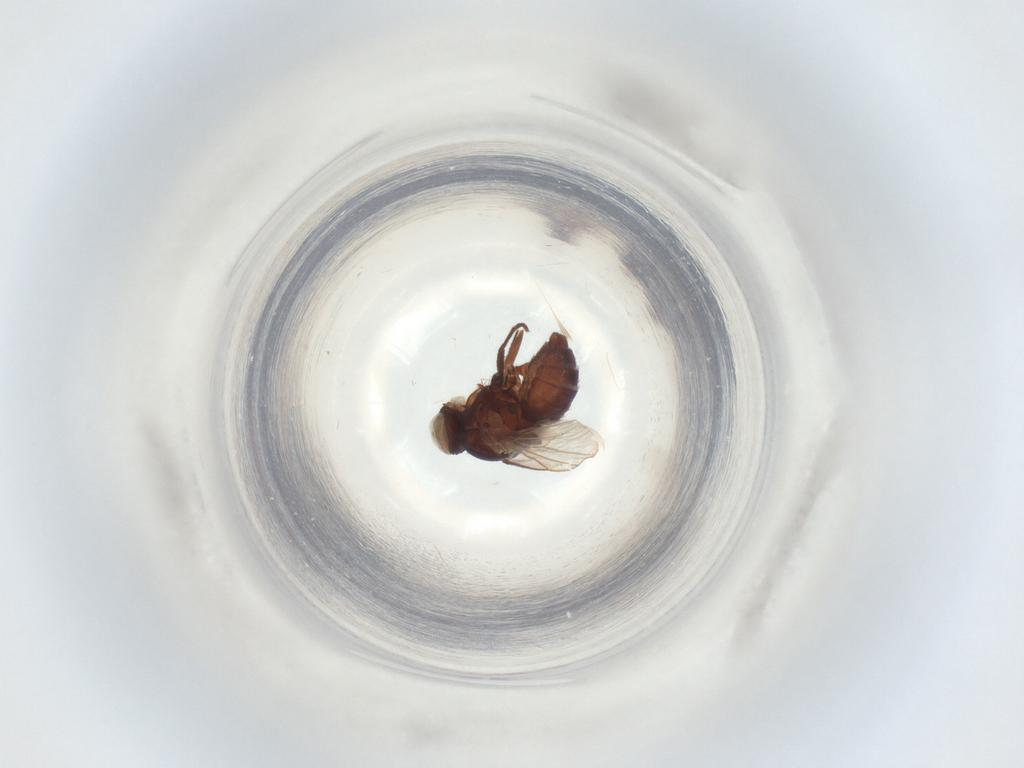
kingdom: Animalia
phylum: Arthropoda
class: Insecta
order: Diptera
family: Agromyzidae
